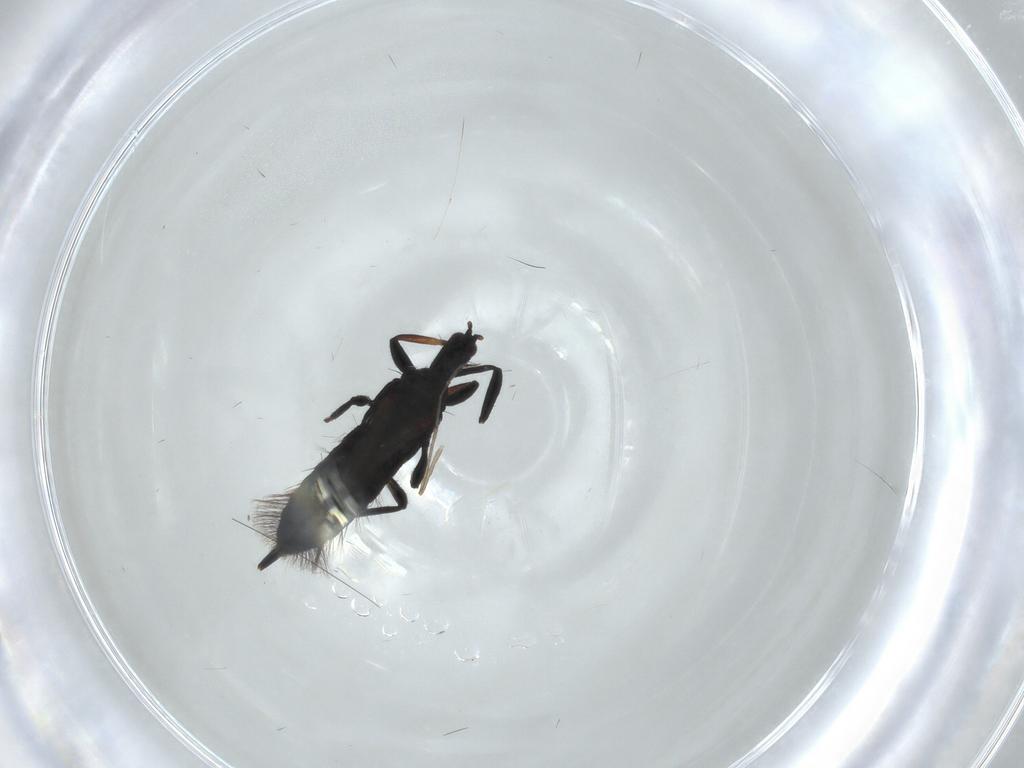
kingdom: Animalia
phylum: Arthropoda
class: Insecta
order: Thysanoptera
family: Phlaeothripidae
